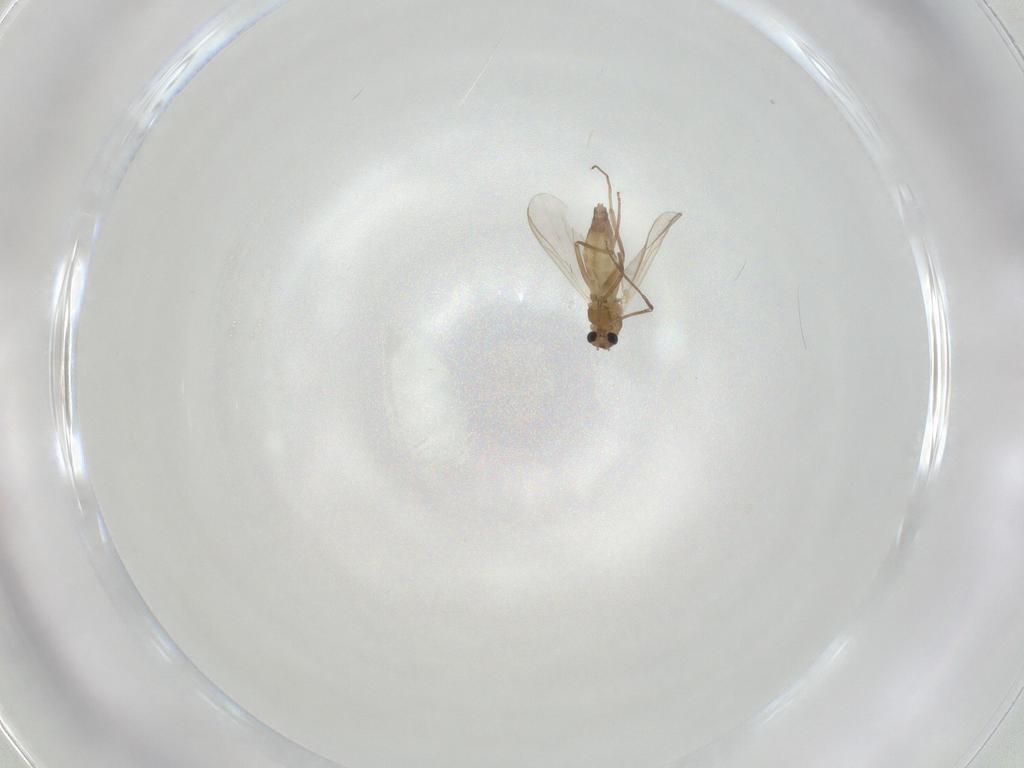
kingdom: Animalia
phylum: Arthropoda
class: Insecta
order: Diptera
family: Chironomidae
